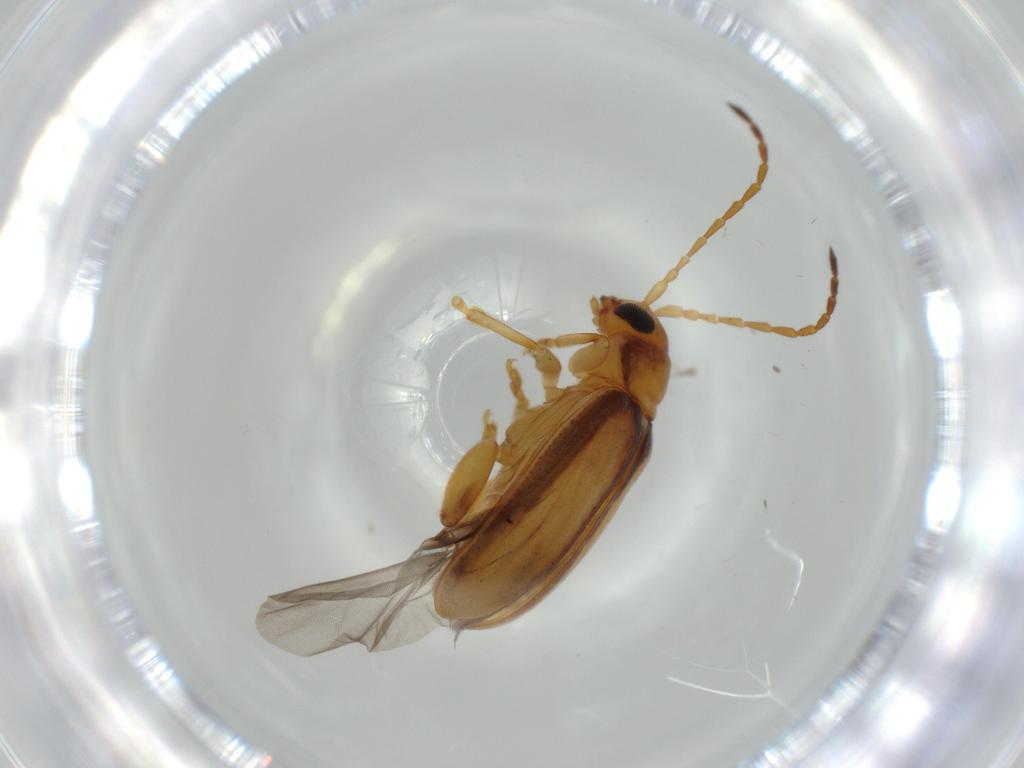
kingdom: Animalia
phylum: Arthropoda
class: Insecta
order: Coleoptera
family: Chrysomelidae
